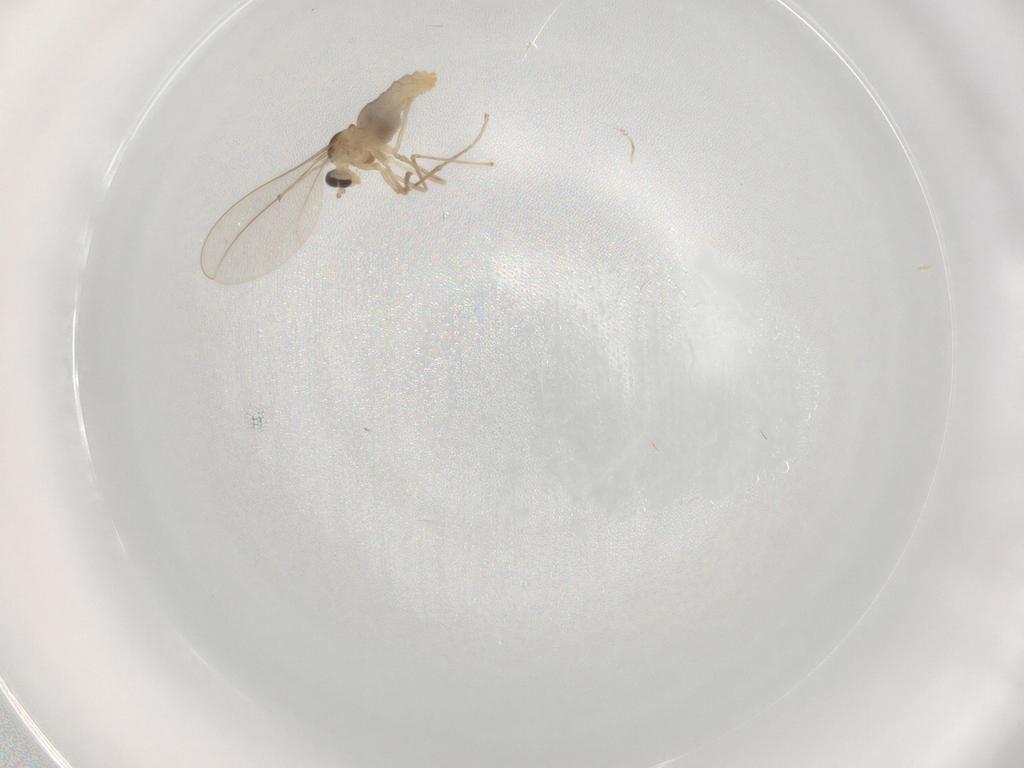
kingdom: Animalia
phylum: Arthropoda
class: Insecta
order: Diptera
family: Cecidomyiidae
